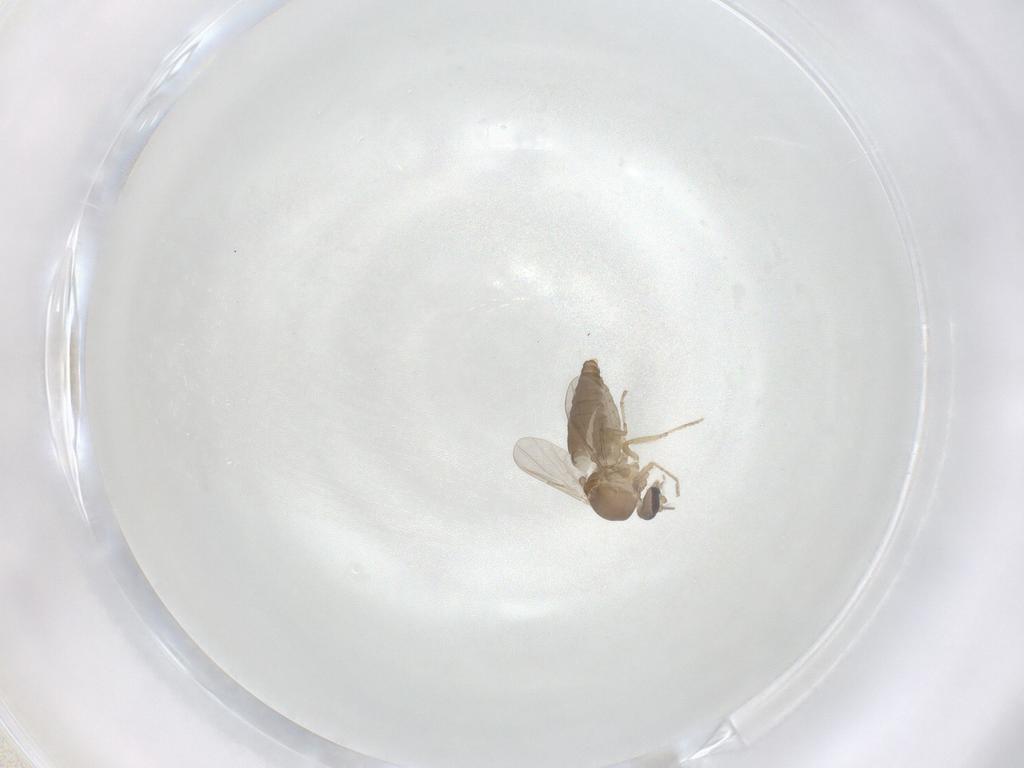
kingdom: Animalia
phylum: Arthropoda
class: Insecta
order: Diptera
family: Ceratopogonidae
